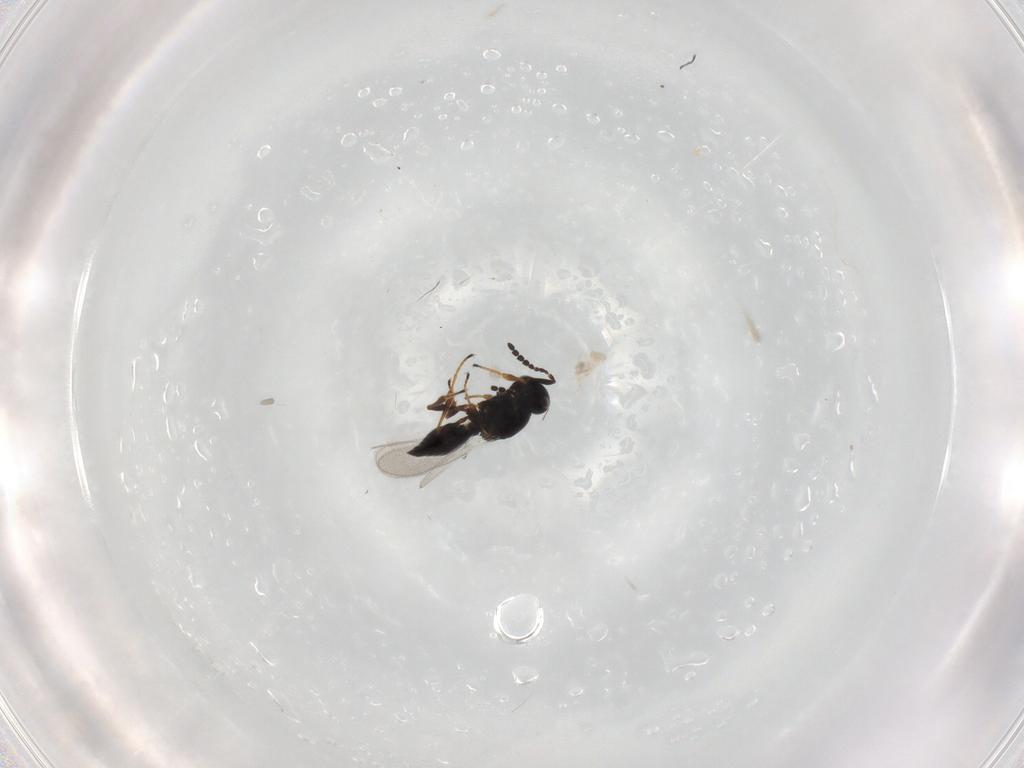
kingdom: Animalia
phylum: Arthropoda
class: Insecta
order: Hymenoptera
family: Platygastridae
